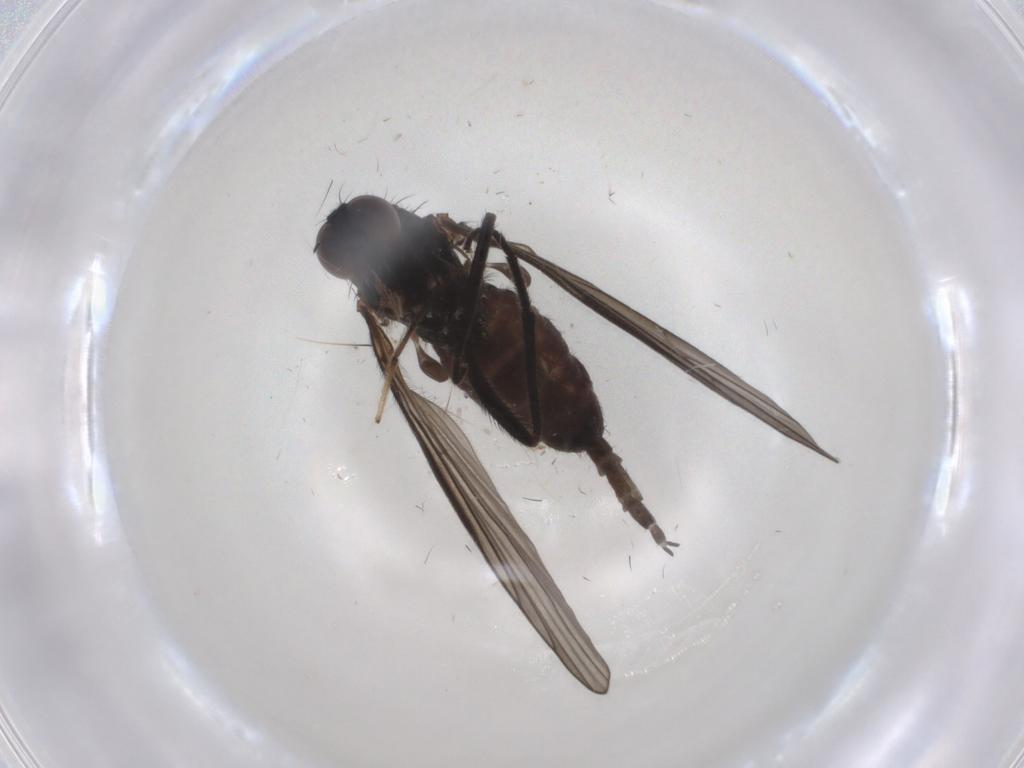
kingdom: Animalia
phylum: Arthropoda
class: Insecta
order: Diptera
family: Empididae
